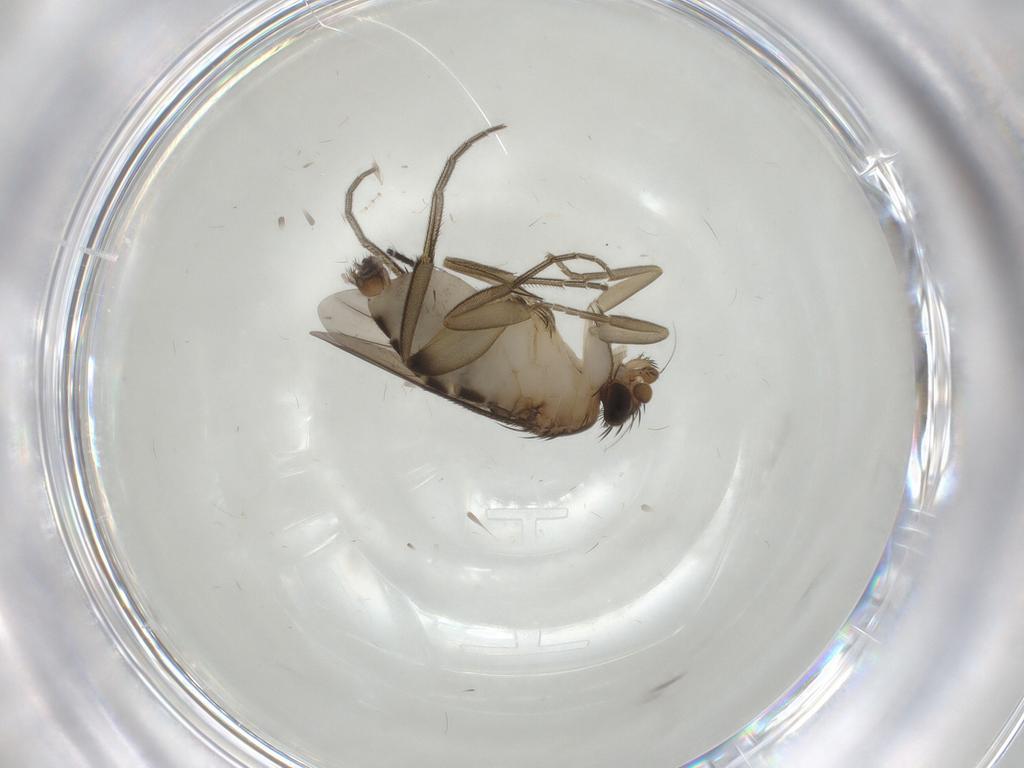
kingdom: Animalia
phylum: Arthropoda
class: Insecta
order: Diptera
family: Phoridae
